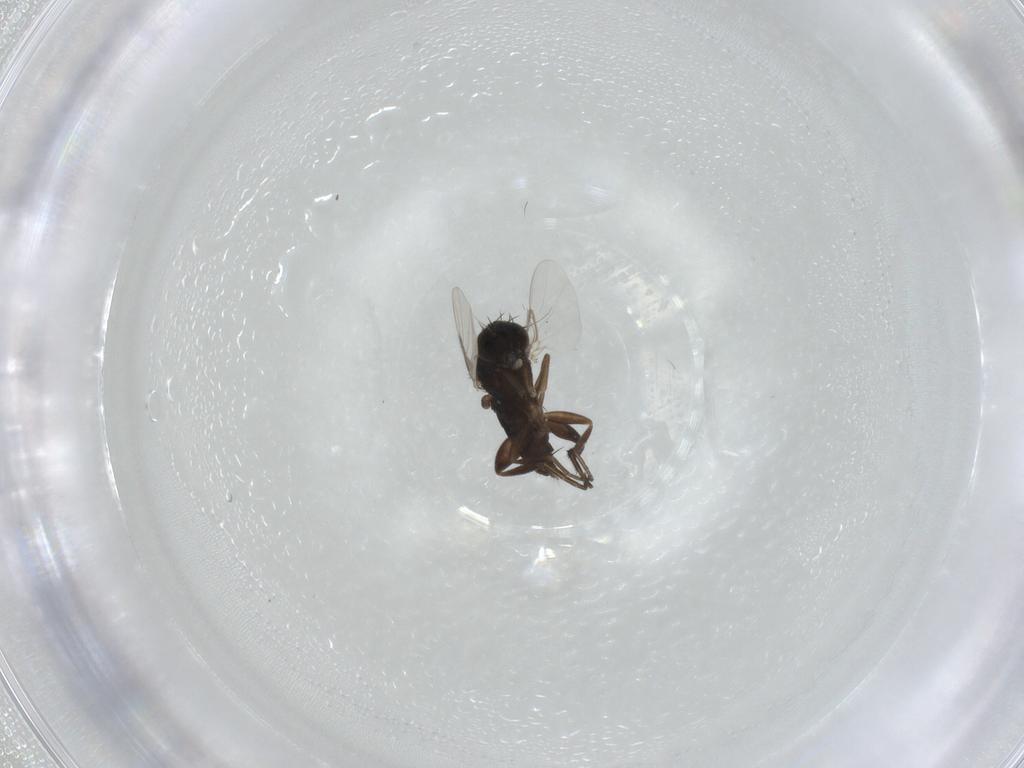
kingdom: Animalia
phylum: Arthropoda
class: Insecta
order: Diptera
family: Phoridae
